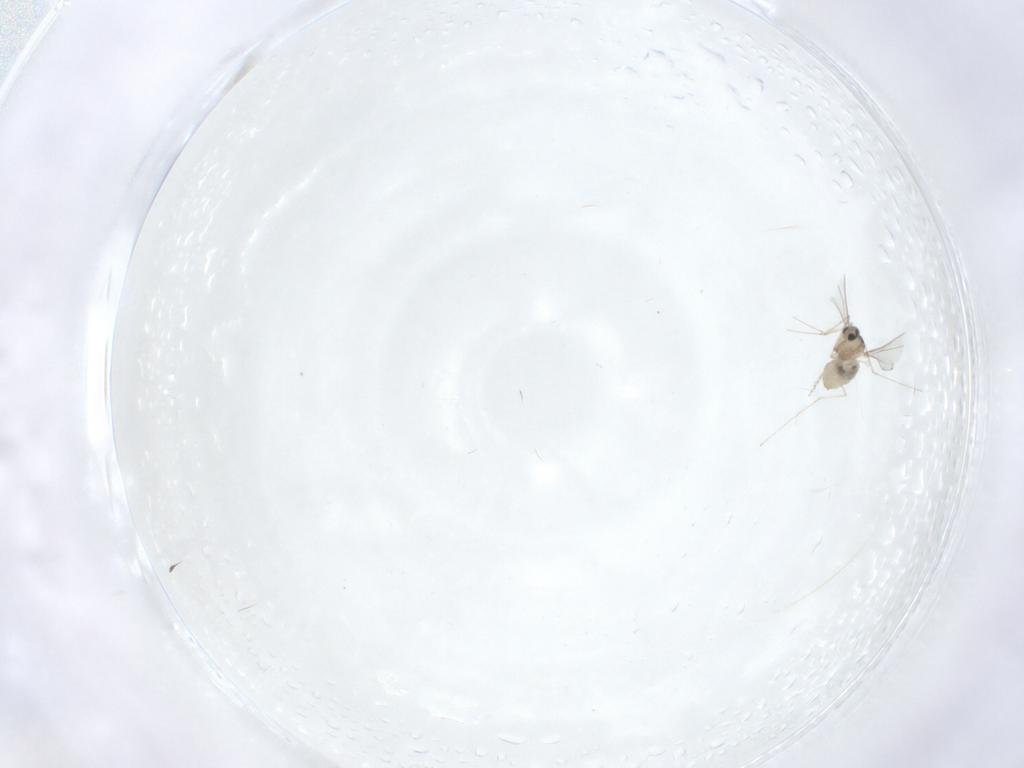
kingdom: Animalia
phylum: Arthropoda
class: Insecta
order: Diptera
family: Cecidomyiidae
